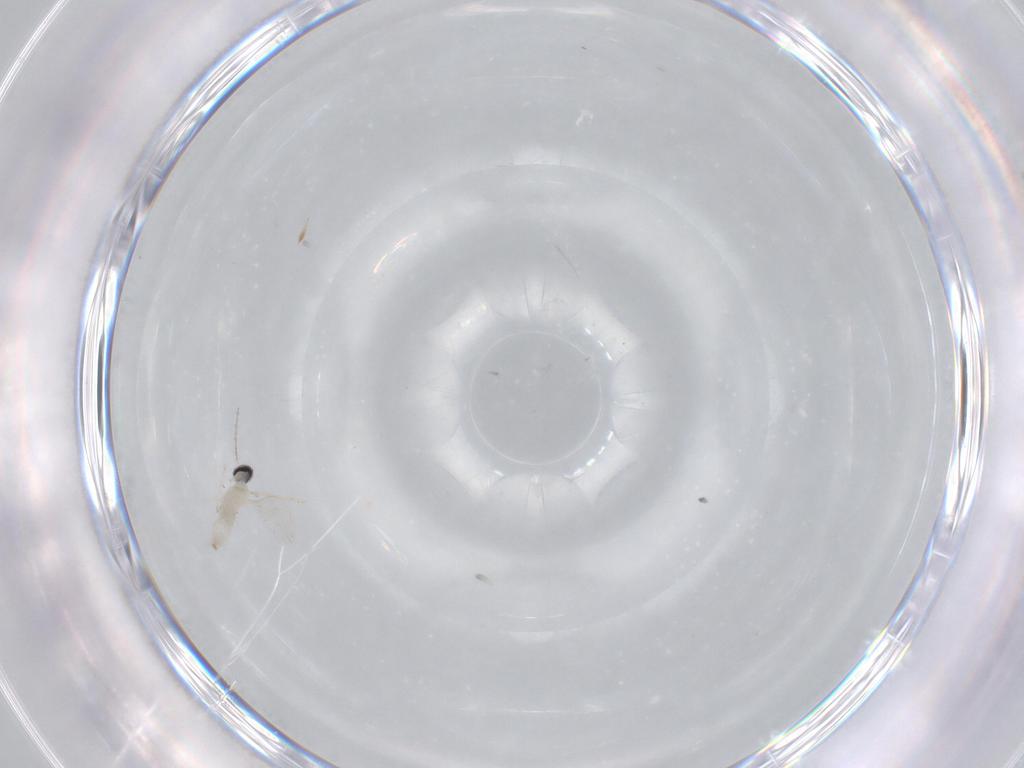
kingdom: Animalia
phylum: Arthropoda
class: Insecta
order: Diptera
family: Cecidomyiidae
